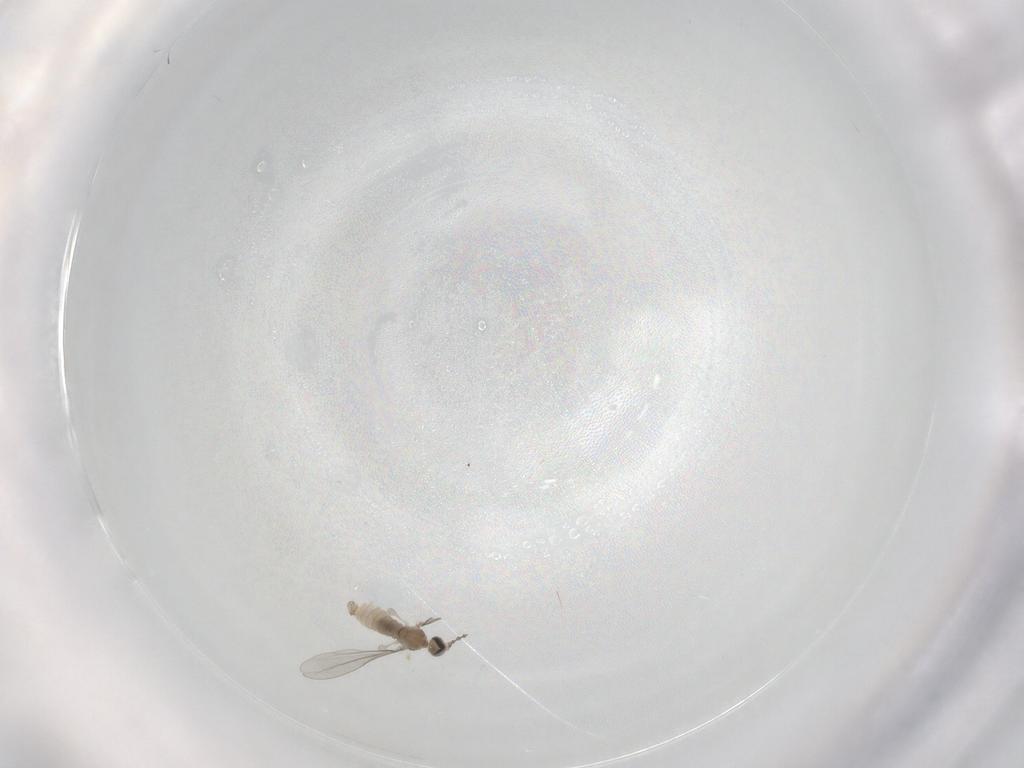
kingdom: Animalia
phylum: Arthropoda
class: Insecta
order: Diptera
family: Cecidomyiidae
